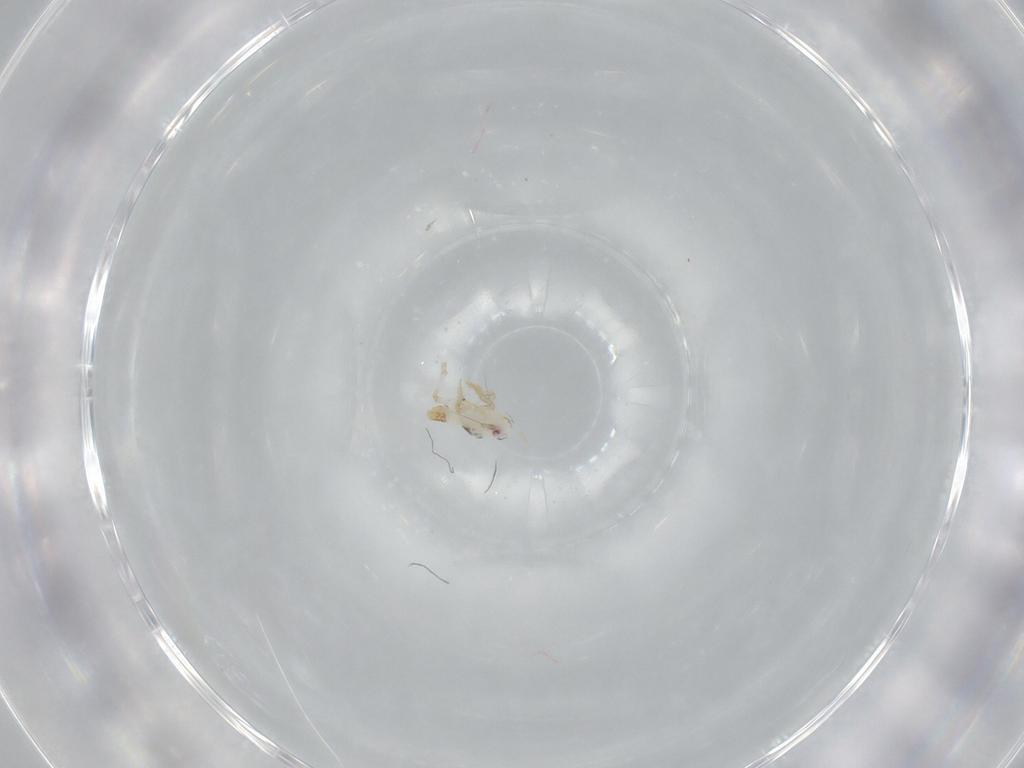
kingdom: Animalia
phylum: Arthropoda
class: Insecta
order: Hemiptera
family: Delphacidae
